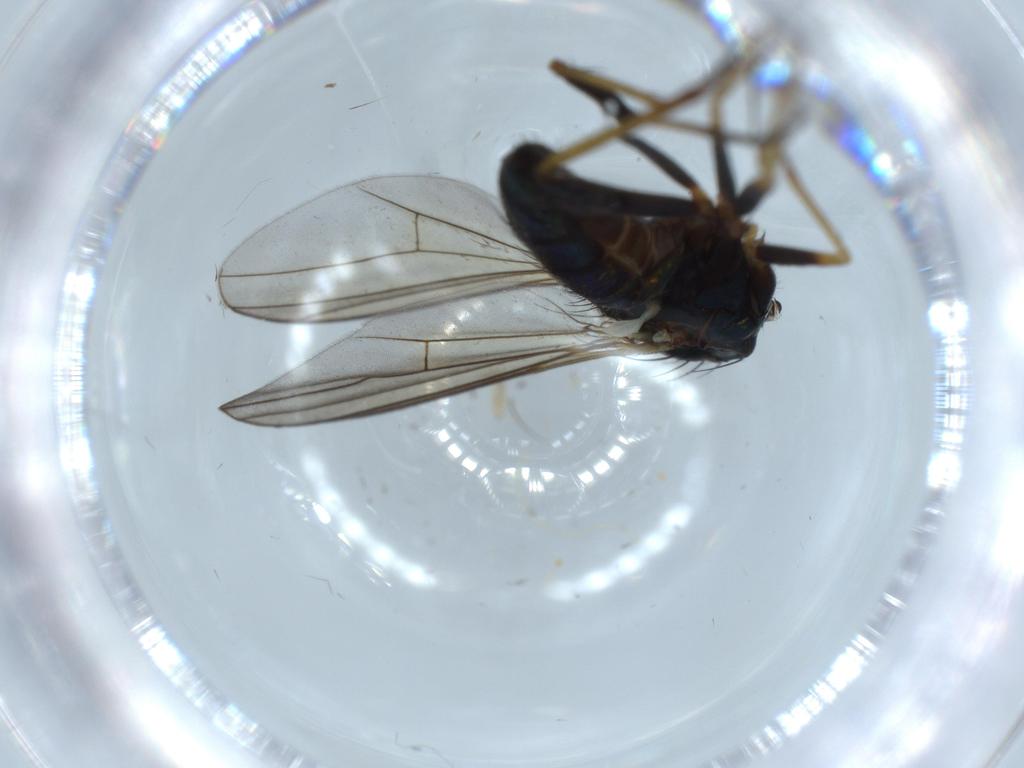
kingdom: Animalia
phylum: Arthropoda
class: Insecta
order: Diptera
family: Dolichopodidae
